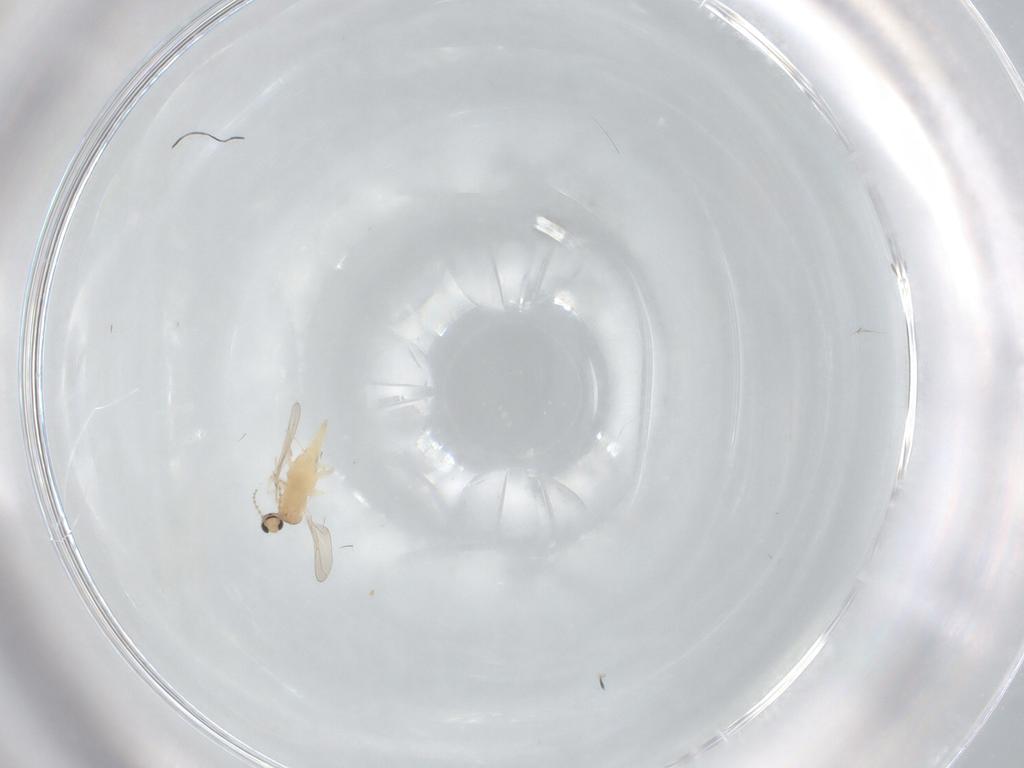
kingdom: Animalia
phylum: Arthropoda
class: Insecta
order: Diptera
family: Cecidomyiidae
